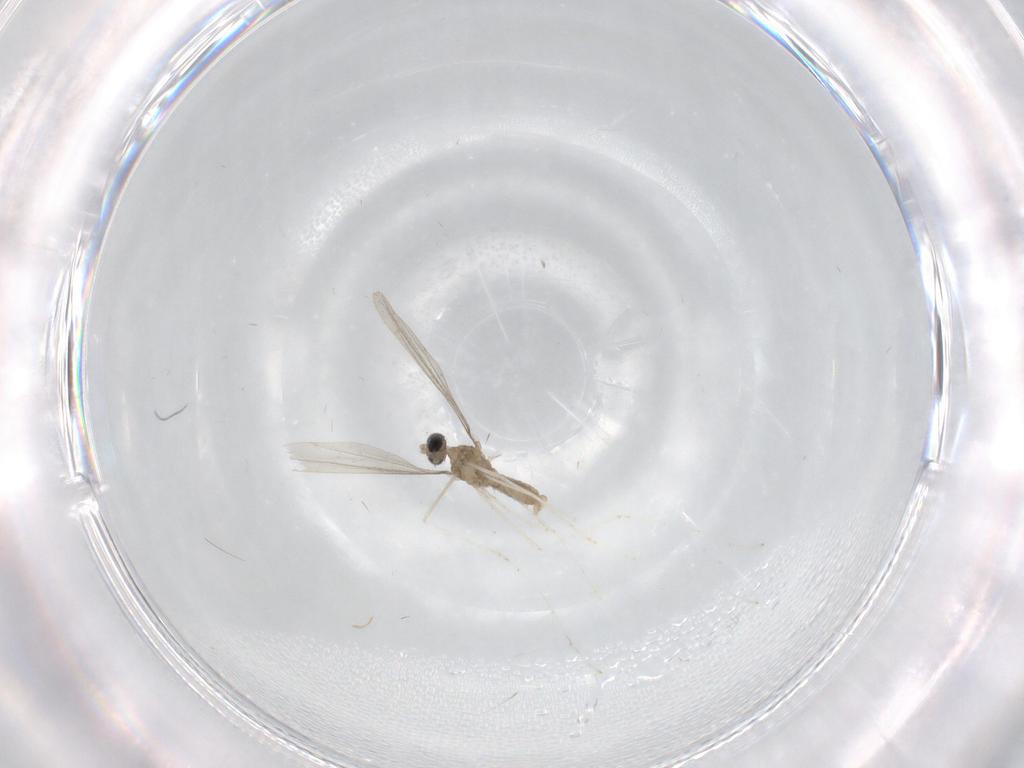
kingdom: Animalia
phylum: Arthropoda
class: Insecta
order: Diptera
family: Cecidomyiidae
